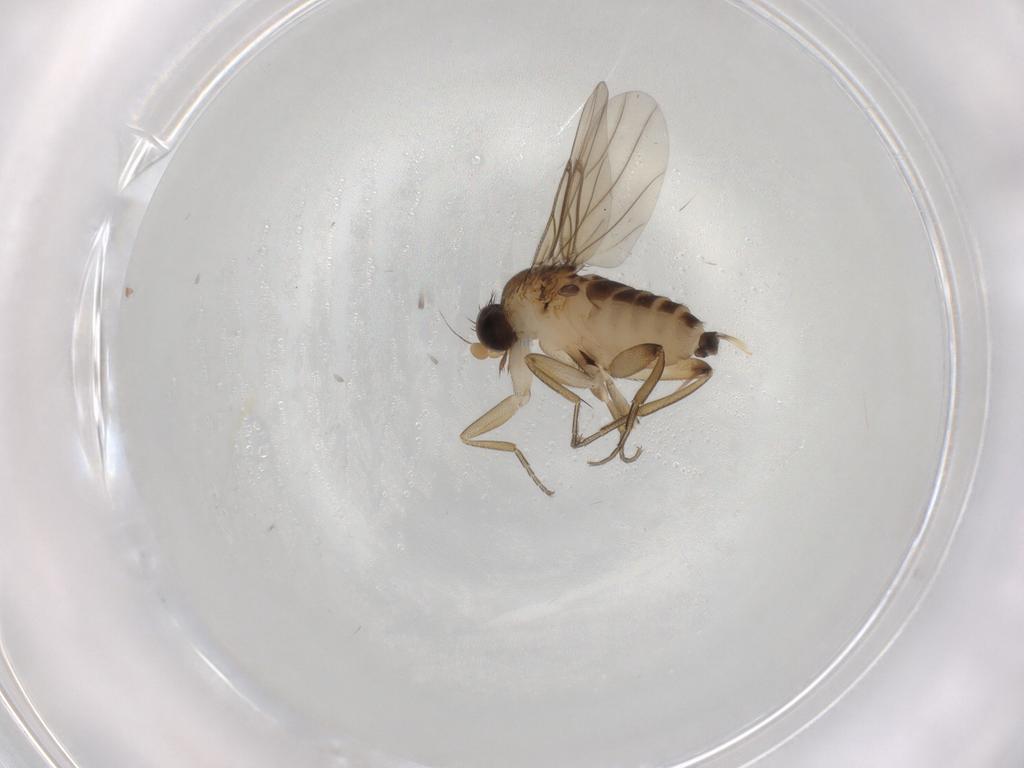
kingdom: Animalia
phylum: Arthropoda
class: Insecta
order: Diptera
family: Phoridae
